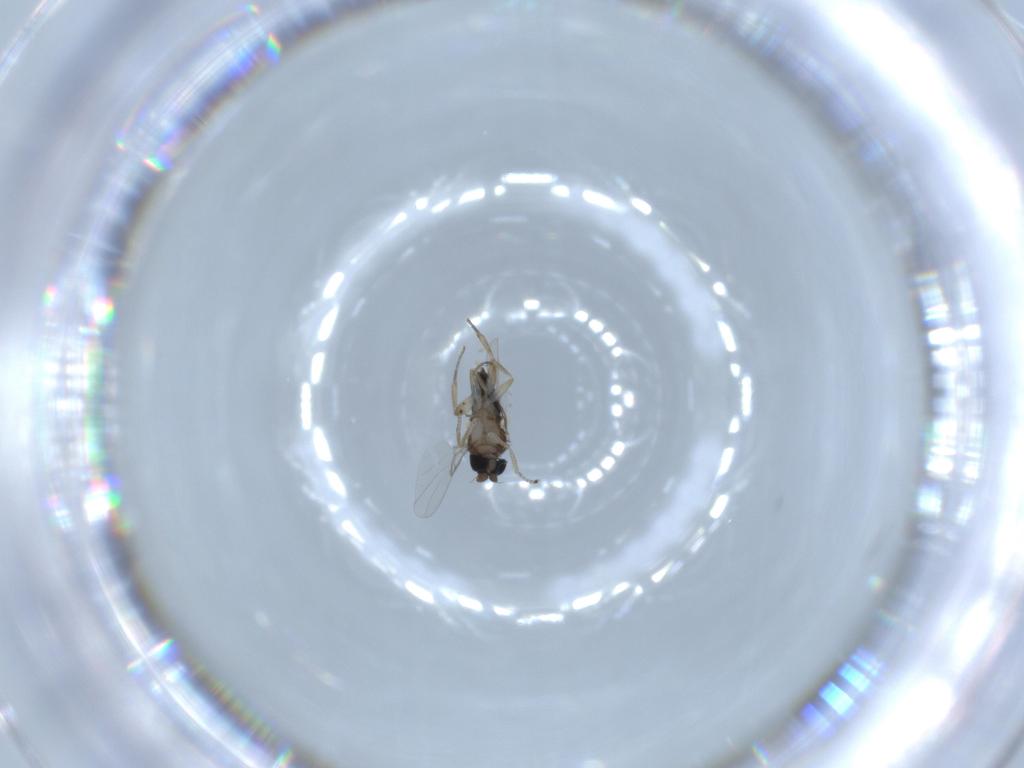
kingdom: Animalia
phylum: Arthropoda
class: Insecta
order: Diptera
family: Phoridae
